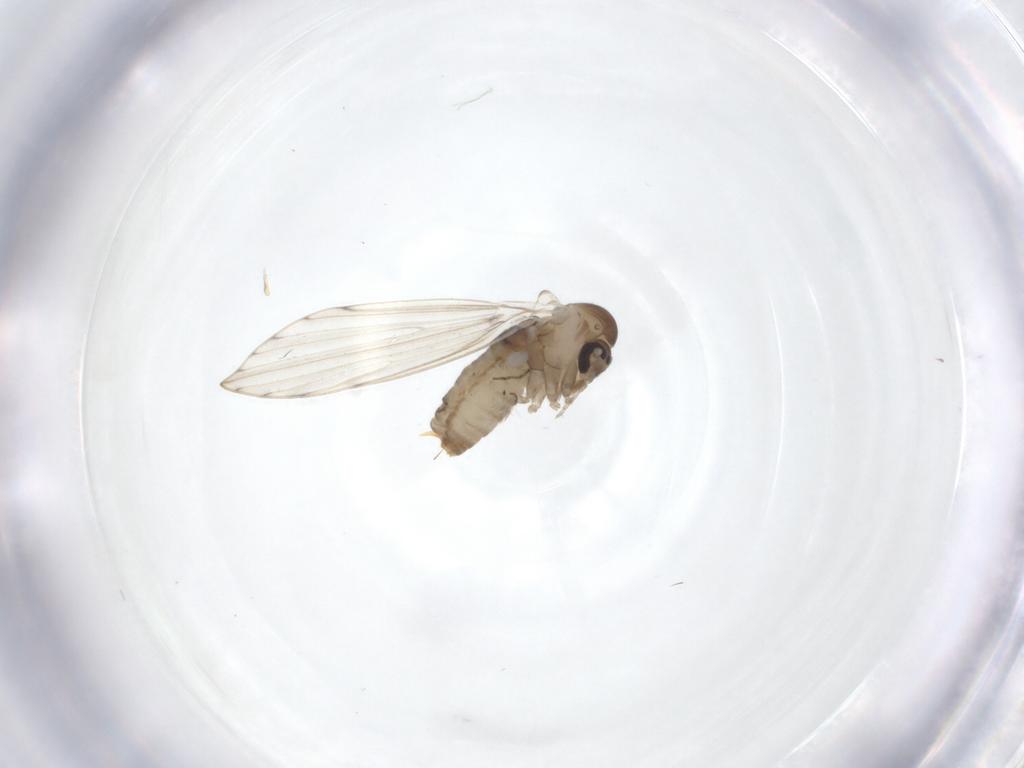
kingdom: Animalia
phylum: Arthropoda
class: Insecta
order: Diptera
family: Psychodidae
